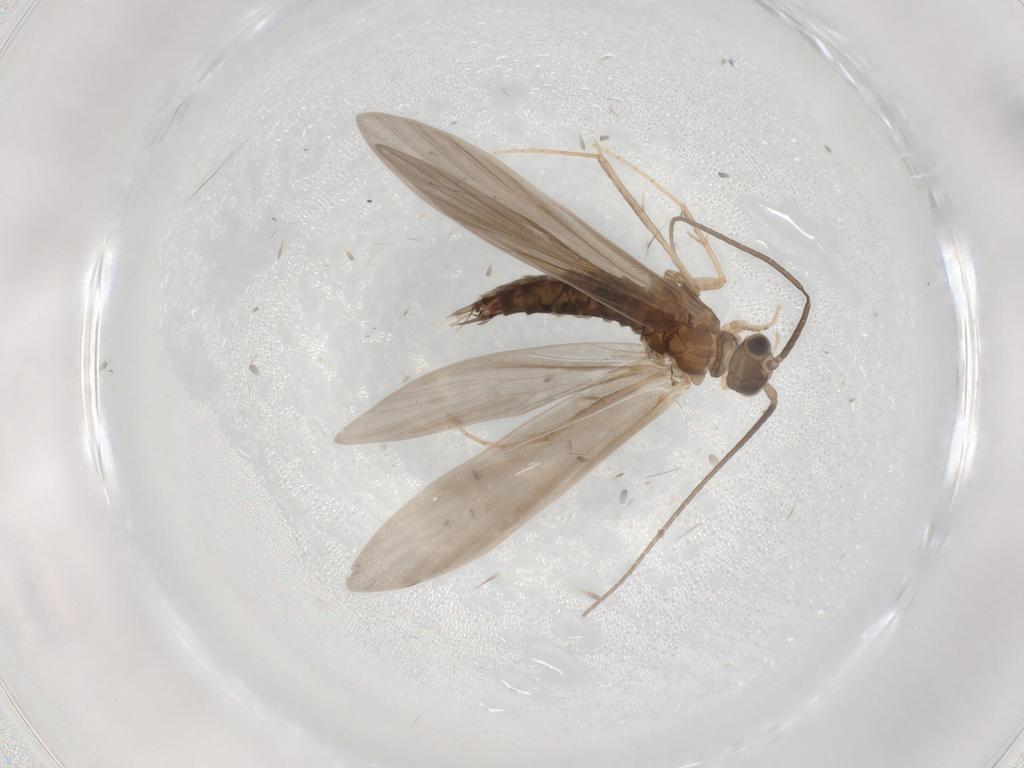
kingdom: Animalia
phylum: Arthropoda
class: Insecta
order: Trichoptera
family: Xiphocentronidae
